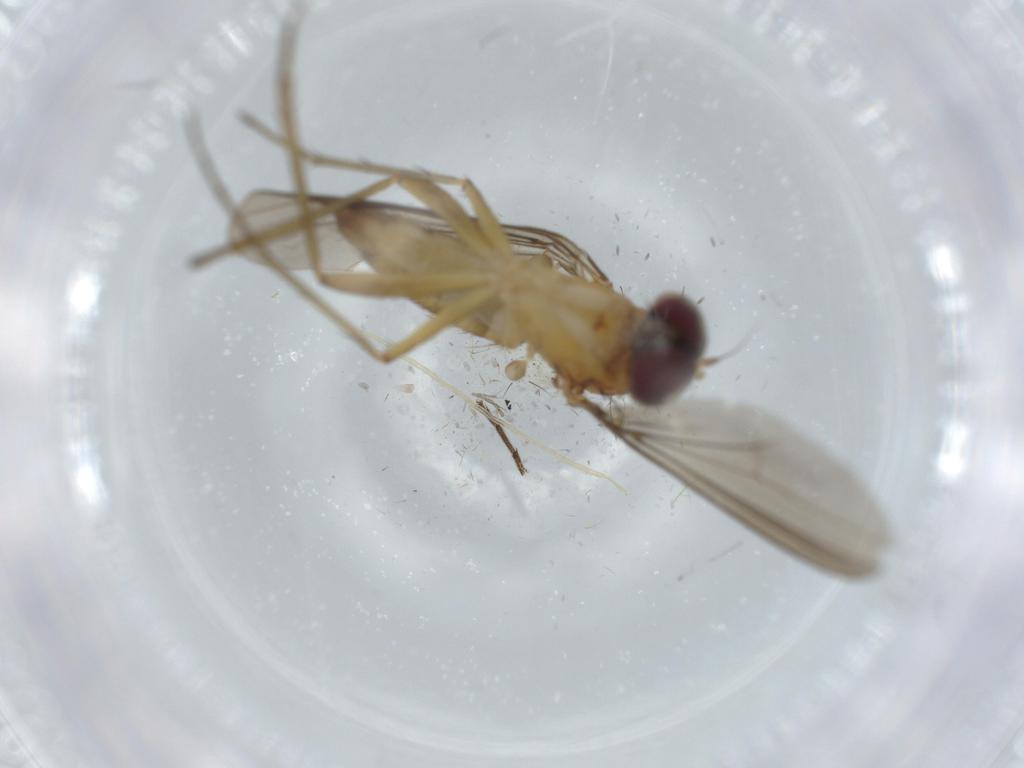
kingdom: Animalia
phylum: Arthropoda
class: Insecta
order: Diptera
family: Dolichopodidae
